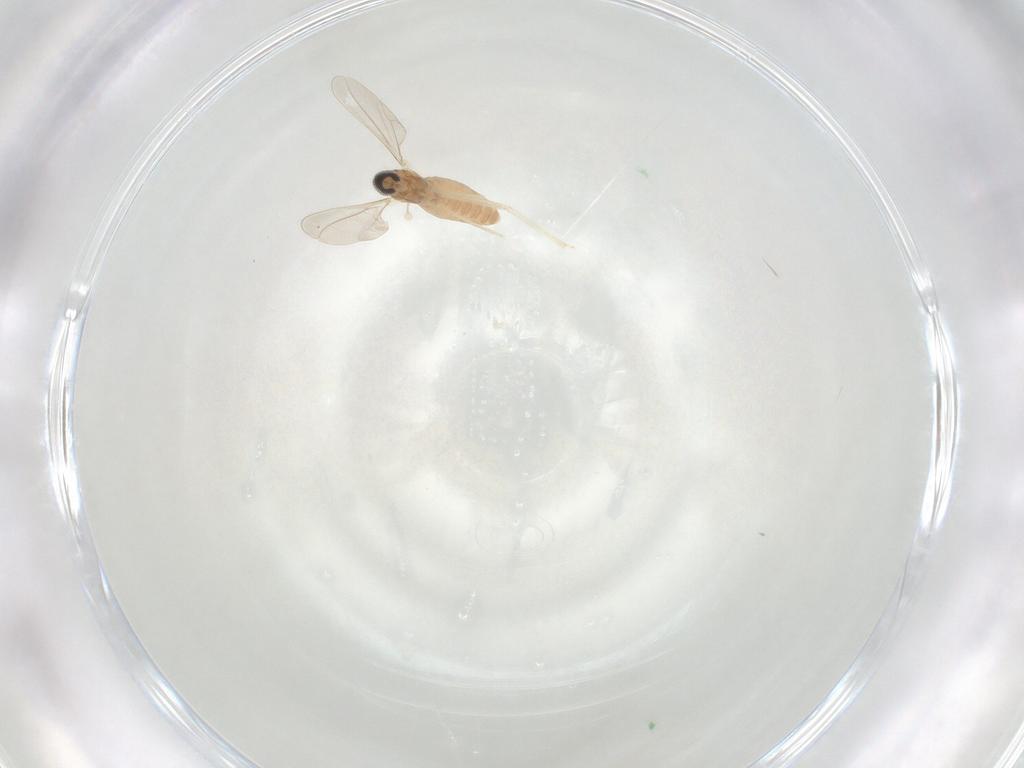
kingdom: Animalia
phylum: Arthropoda
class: Insecta
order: Diptera
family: Cecidomyiidae
